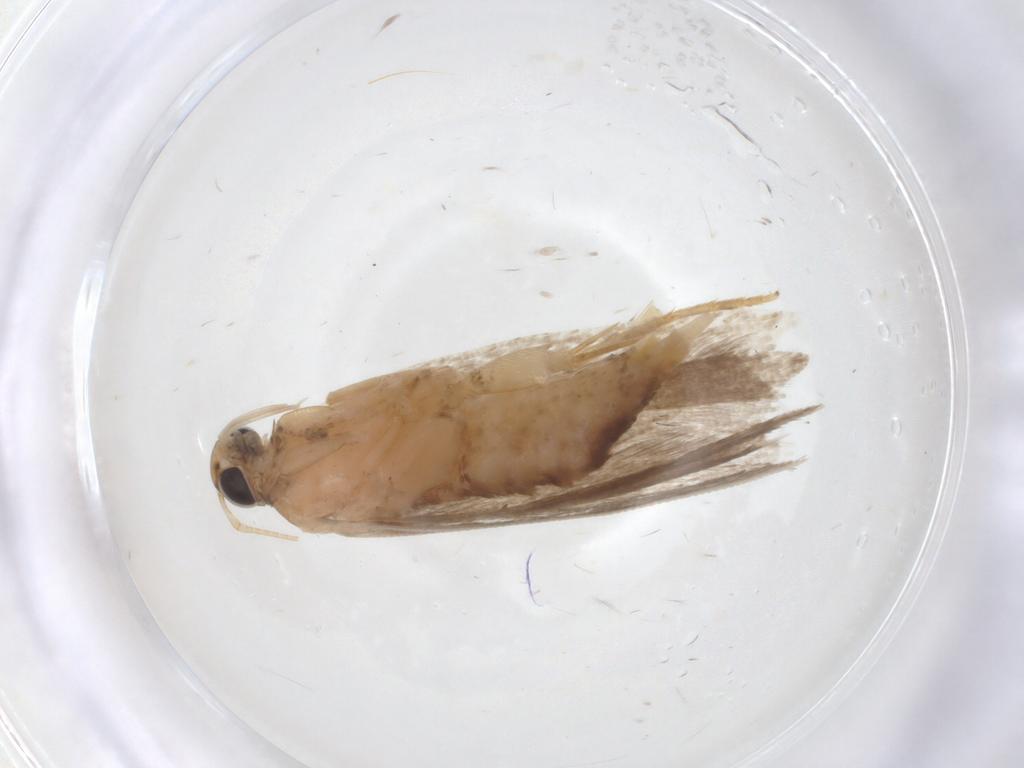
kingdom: Animalia
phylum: Arthropoda
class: Insecta
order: Lepidoptera
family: Gelechiidae
